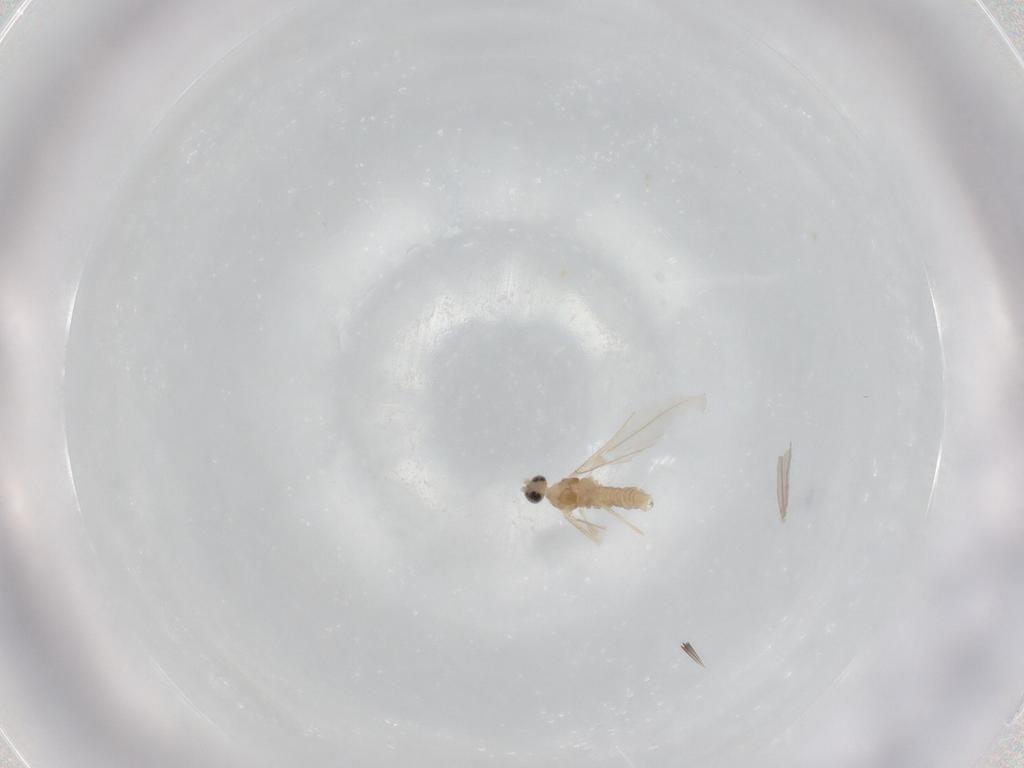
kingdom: Animalia
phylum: Arthropoda
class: Insecta
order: Diptera
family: Cecidomyiidae
